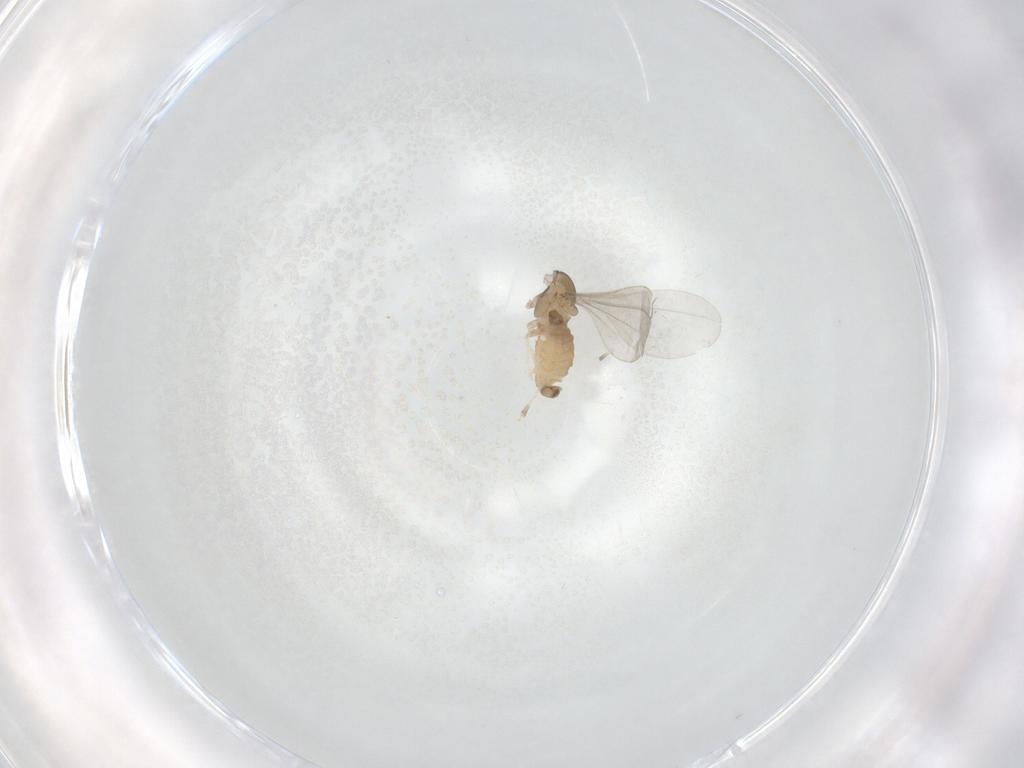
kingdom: Animalia
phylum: Arthropoda
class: Insecta
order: Diptera
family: Cecidomyiidae
